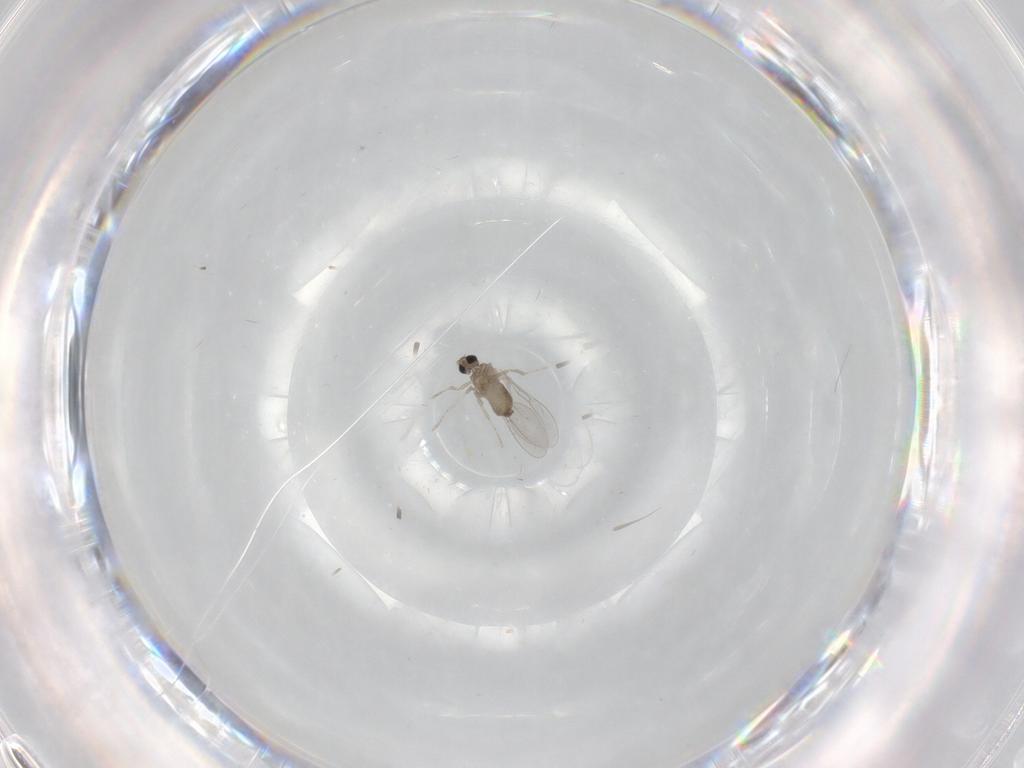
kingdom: Animalia
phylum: Arthropoda
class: Insecta
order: Diptera
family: Cecidomyiidae
